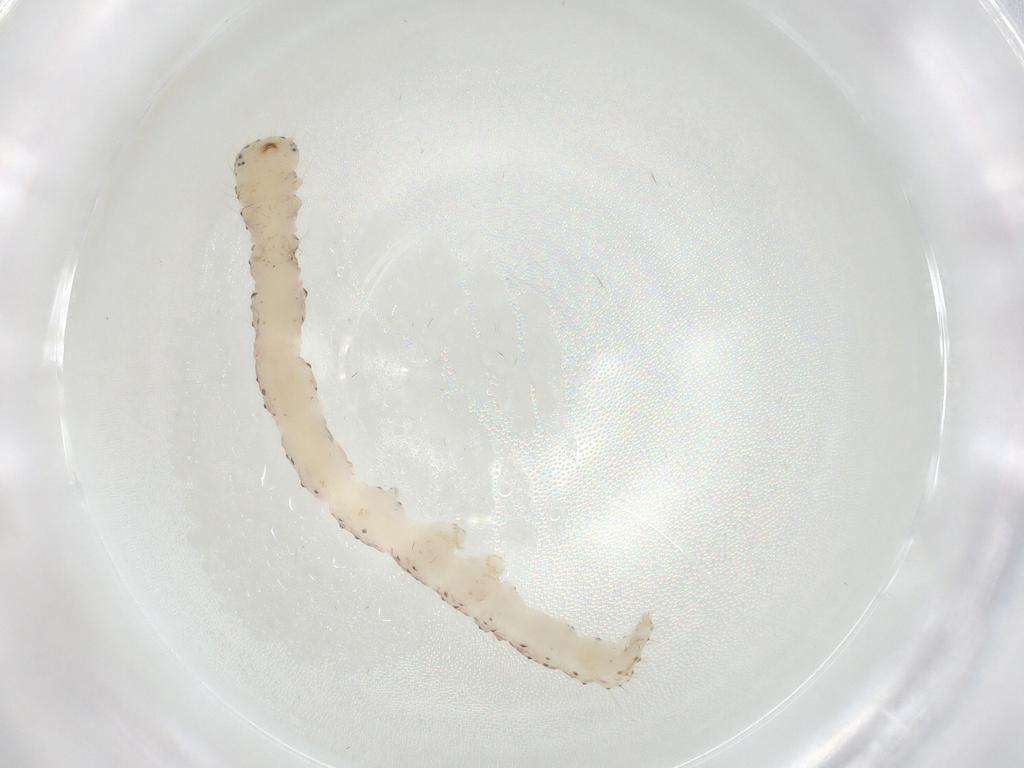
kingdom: Animalia
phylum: Arthropoda
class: Insecta
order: Lepidoptera
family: Erebidae
